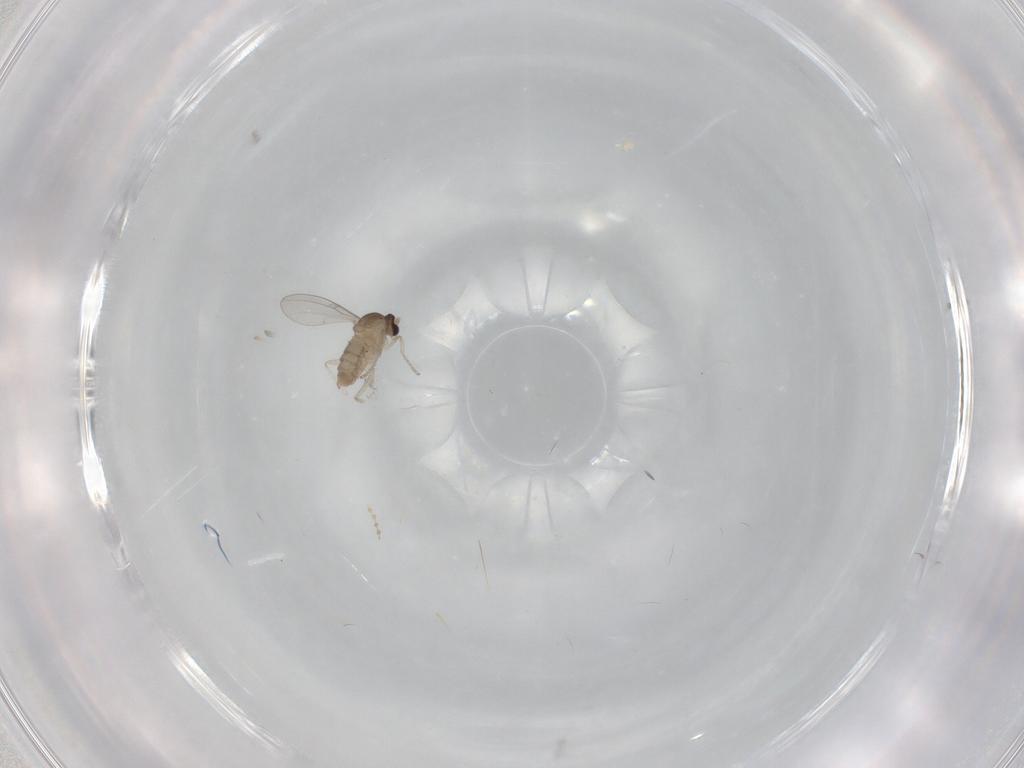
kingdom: Animalia
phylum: Arthropoda
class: Insecta
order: Diptera
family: Cecidomyiidae
